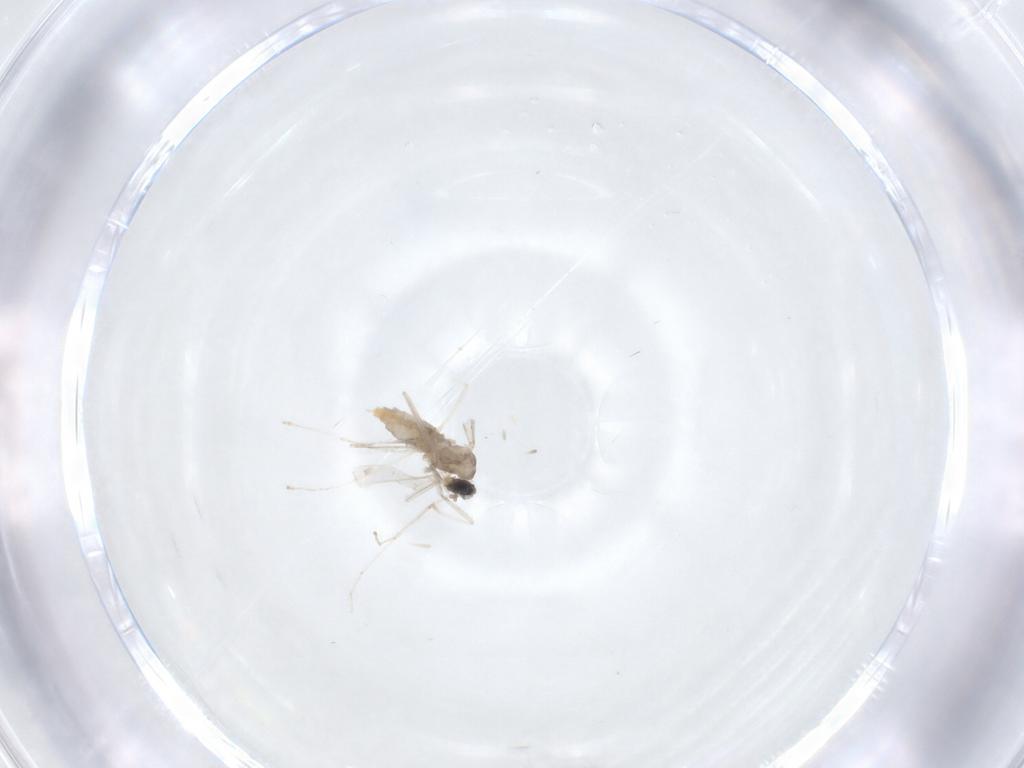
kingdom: Animalia
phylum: Arthropoda
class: Insecta
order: Diptera
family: Cecidomyiidae
